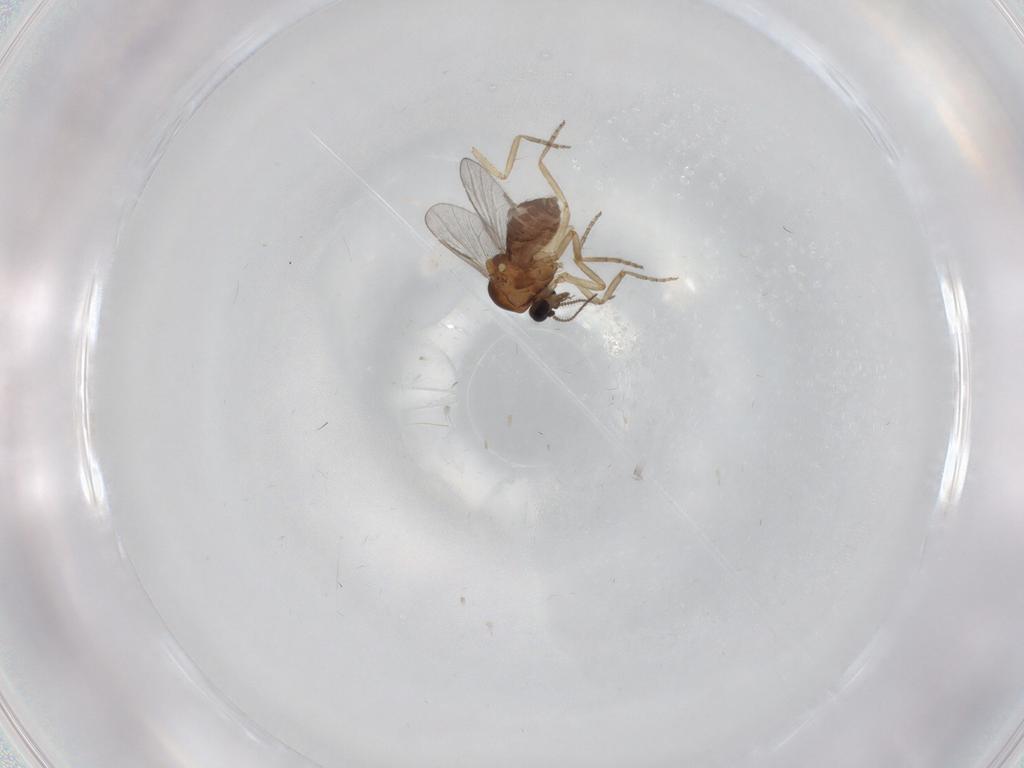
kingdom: Animalia
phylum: Arthropoda
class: Insecta
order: Diptera
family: Ceratopogonidae
